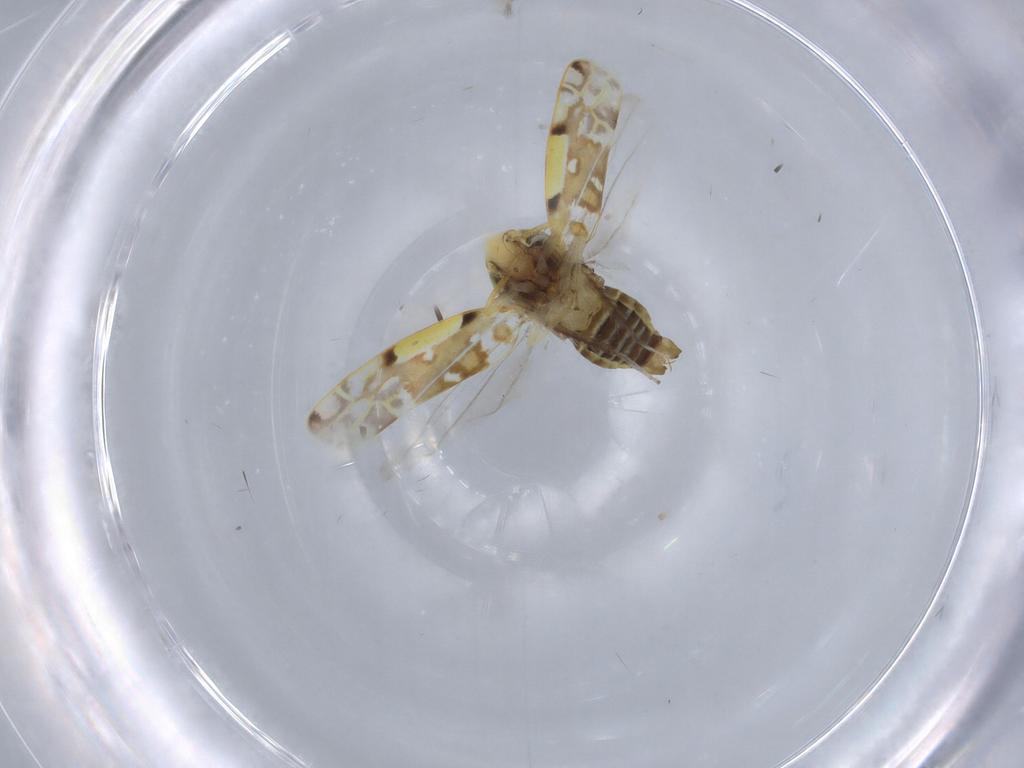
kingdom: Animalia
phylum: Arthropoda
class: Insecta
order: Hemiptera
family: Cicadellidae
